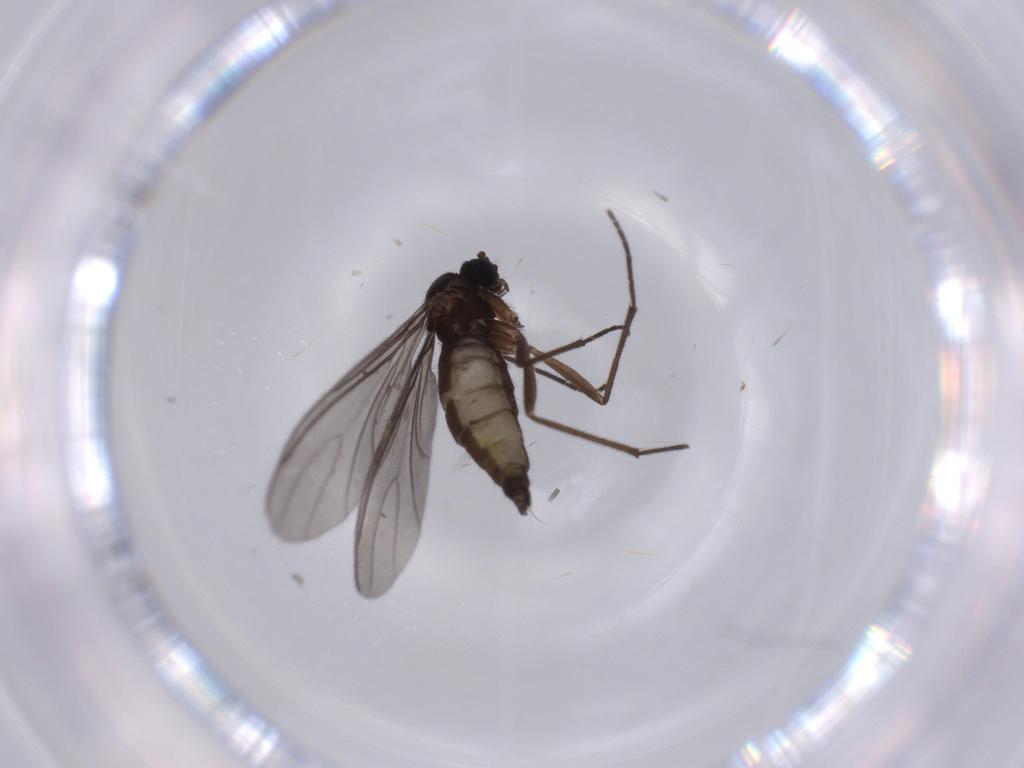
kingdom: Animalia
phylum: Arthropoda
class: Insecta
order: Diptera
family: Sciaridae
